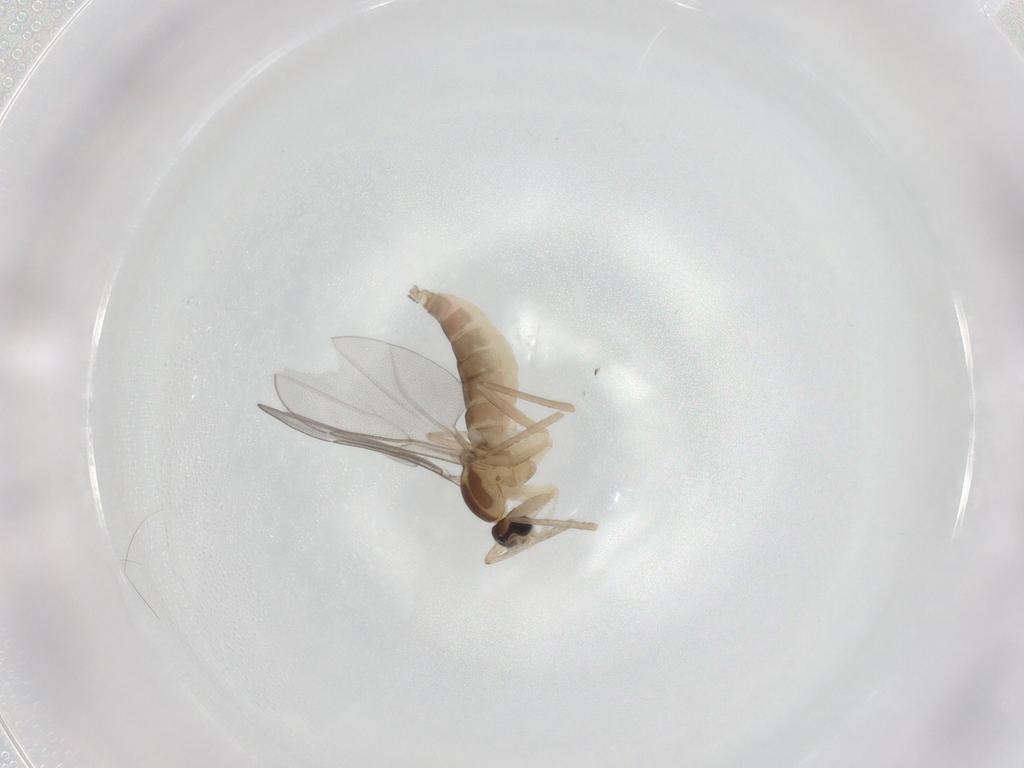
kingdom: Animalia
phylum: Arthropoda
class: Insecta
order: Diptera
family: Cecidomyiidae
